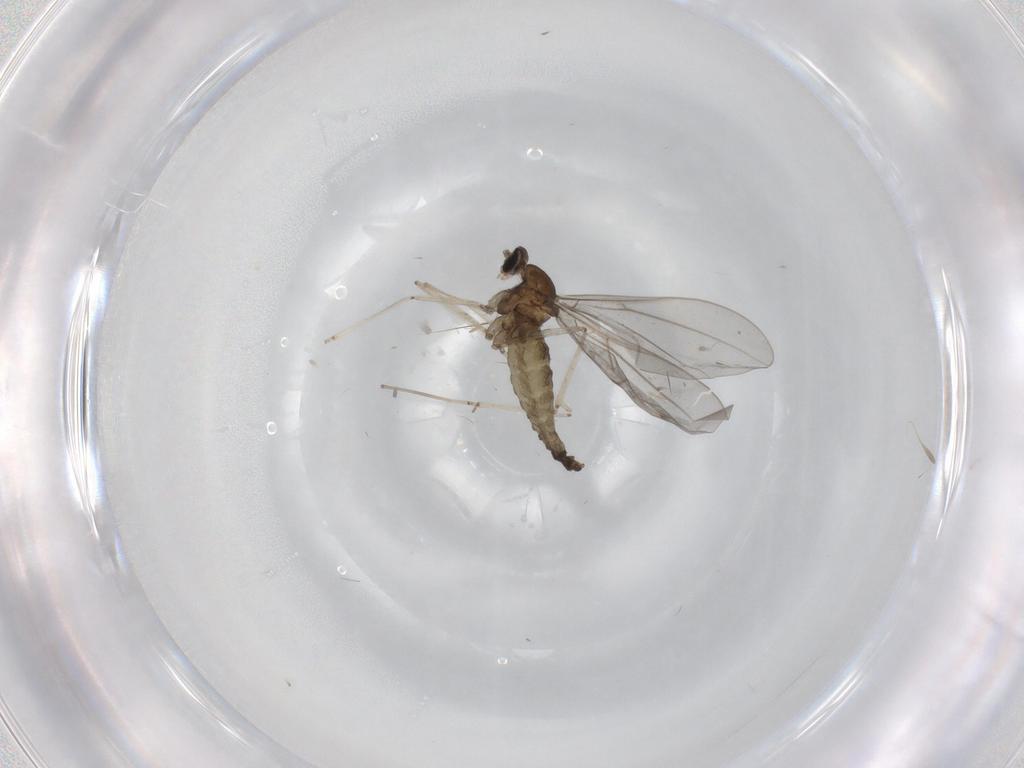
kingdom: Animalia
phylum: Arthropoda
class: Insecta
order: Diptera
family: Cecidomyiidae
